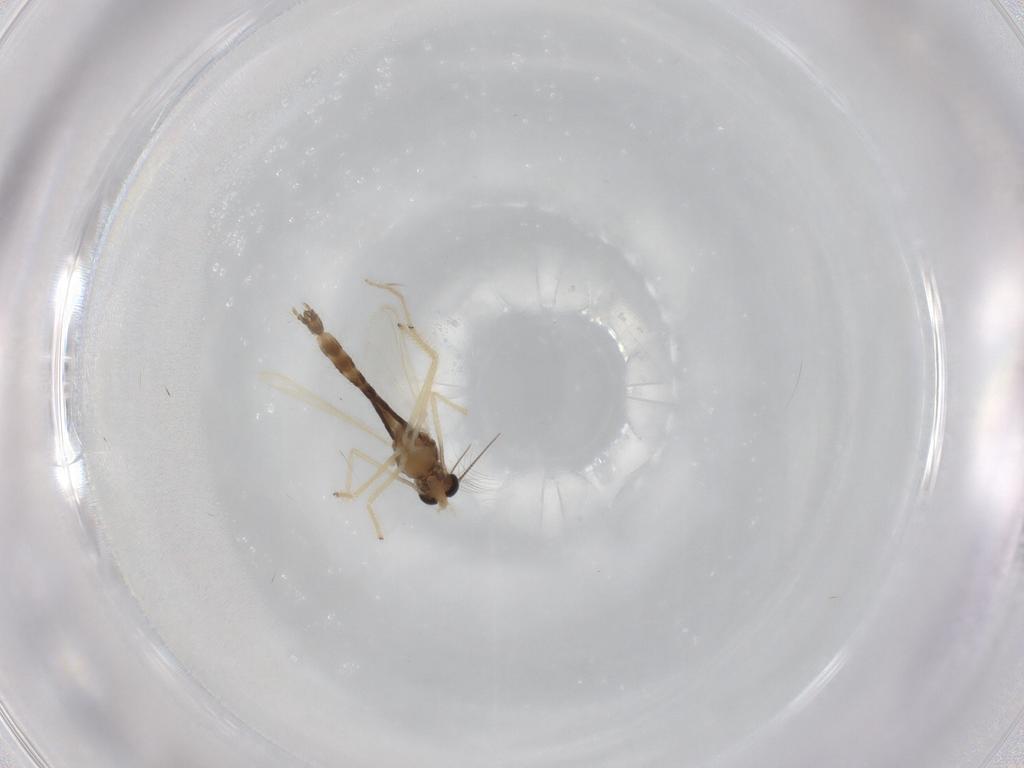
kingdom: Animalia
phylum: Arthropoda
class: Insecta
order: Diptera
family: Chironomidae
